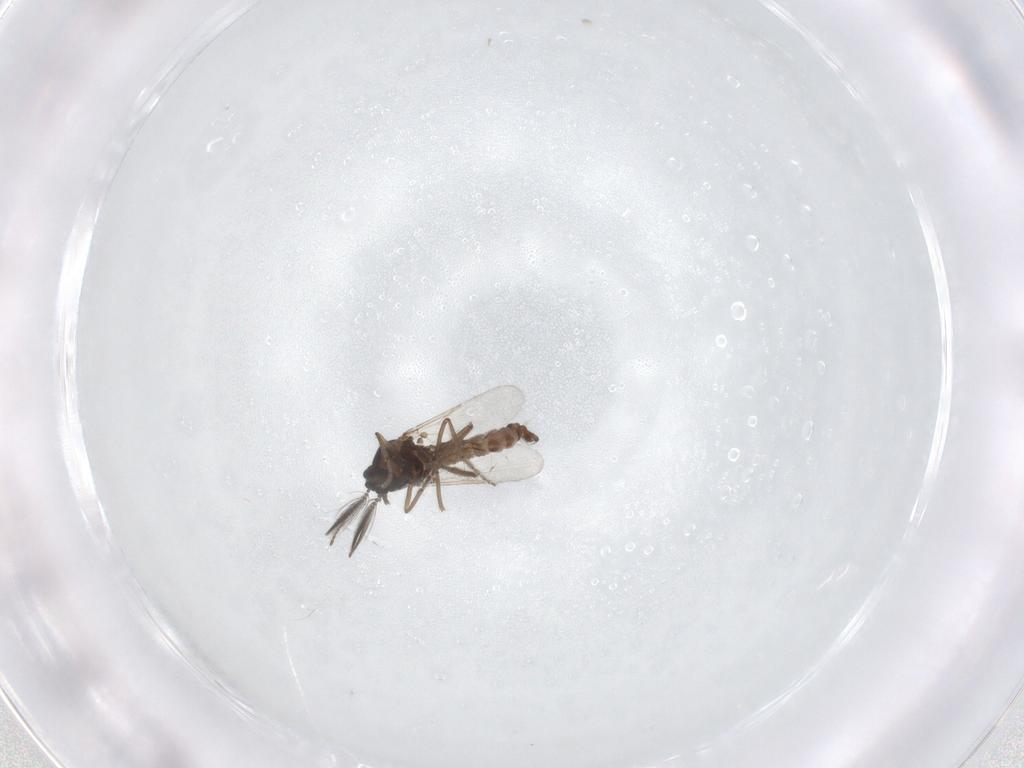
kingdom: Animalia
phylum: Arthropoda
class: Insecta
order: Diptera
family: Ceratopogonidae
